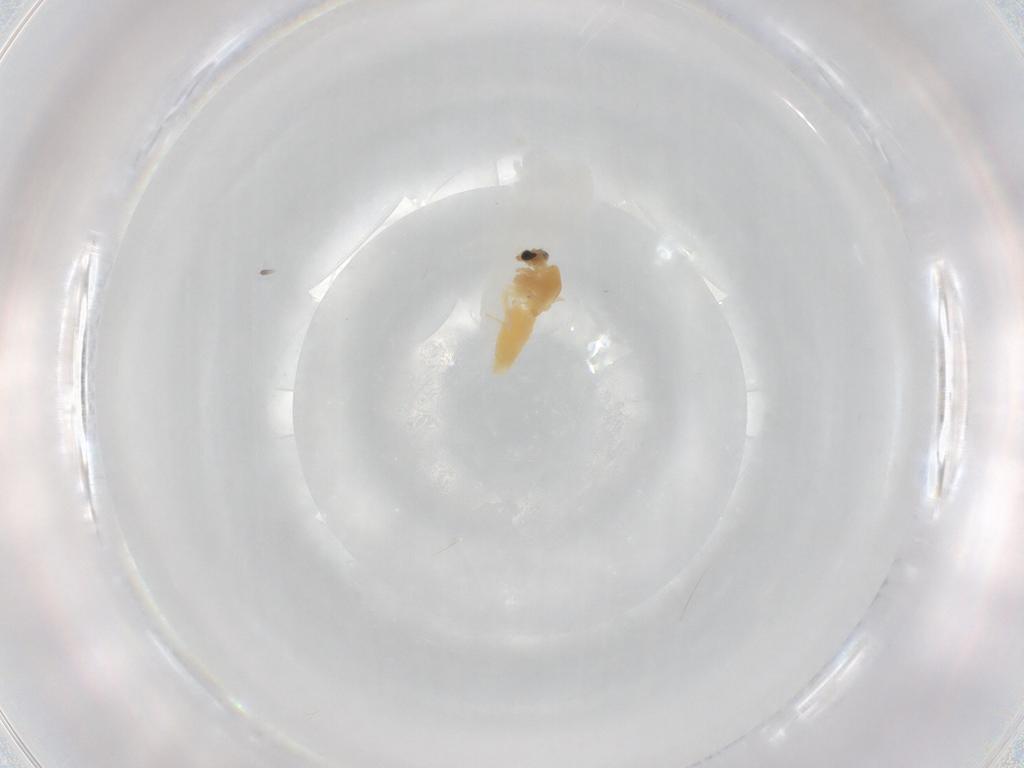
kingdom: Animalia
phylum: Arthropoda
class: Insecta
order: Diptera
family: Chironomidae
